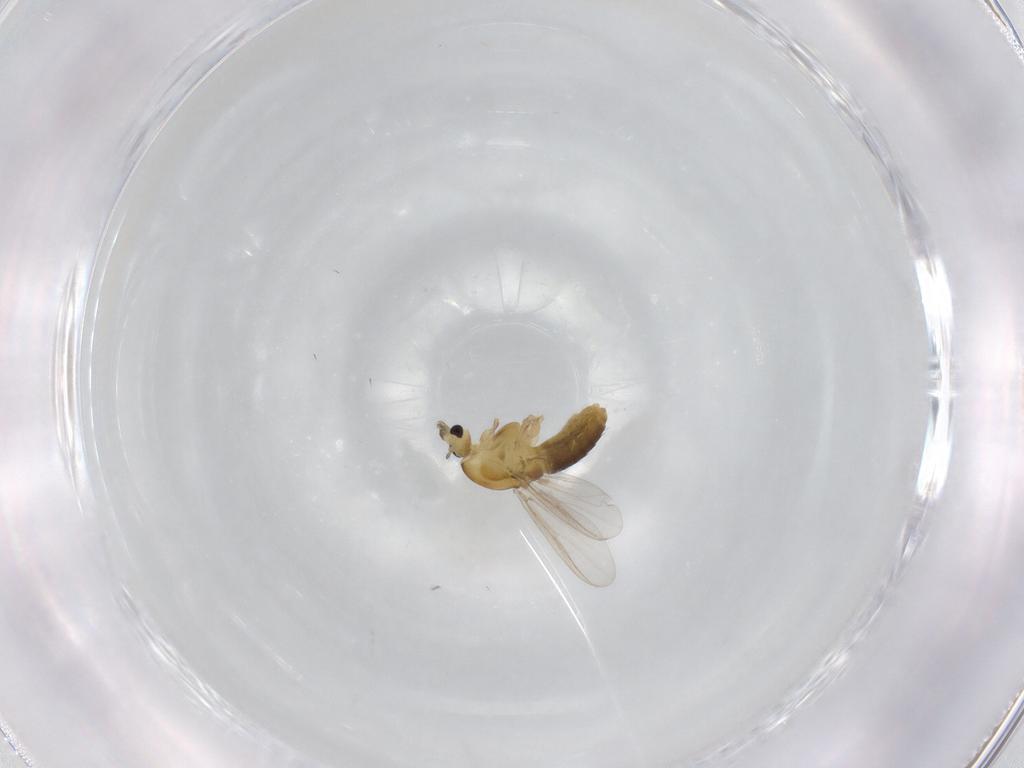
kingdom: Animalia
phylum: Arthropoda
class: Insecta
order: Diptera
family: Chironomidae
